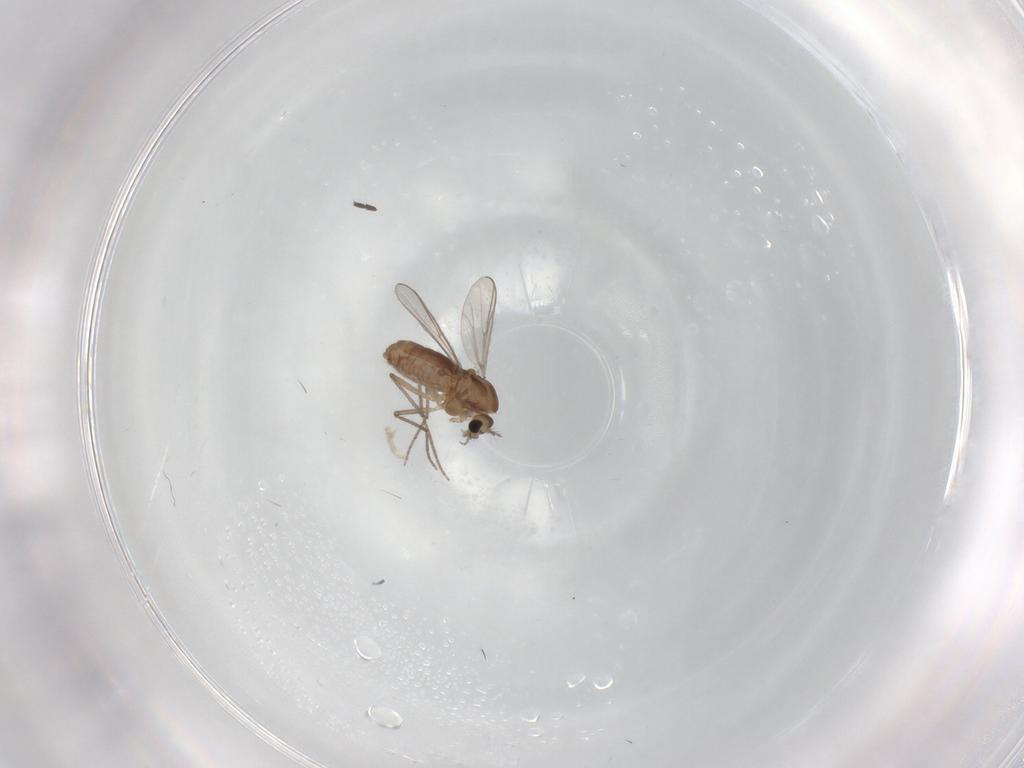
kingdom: Animalia
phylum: Arthropoda
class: Insecta
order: Diptera
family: Chironomidae
